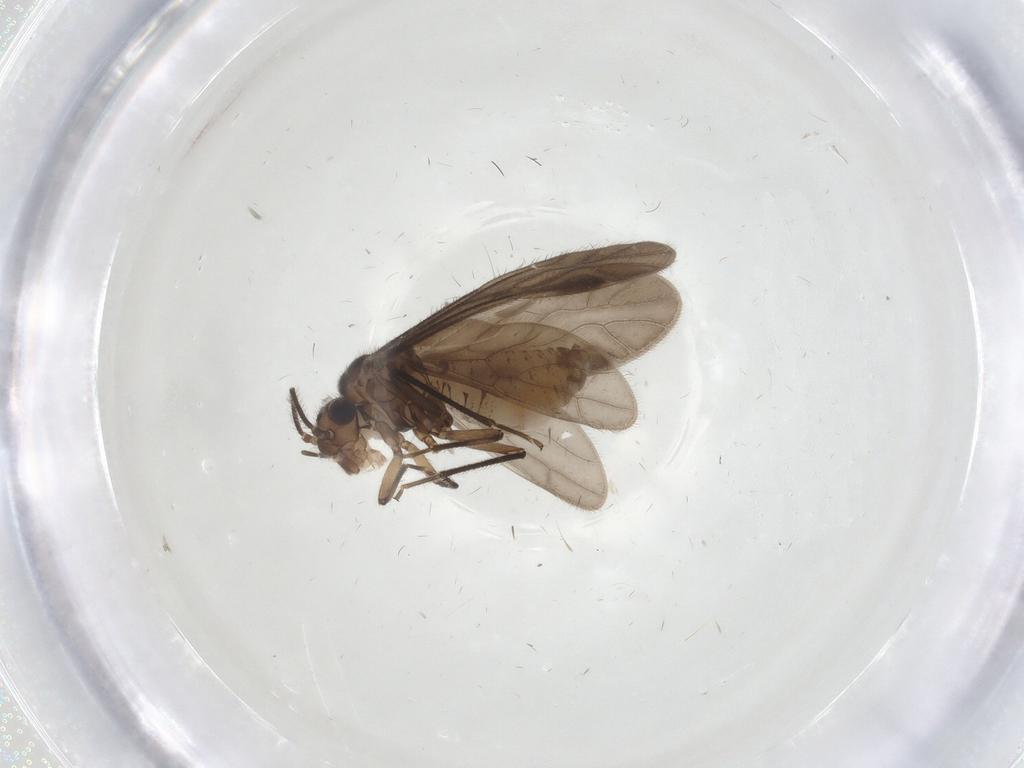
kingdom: Animalia
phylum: Arthropoda
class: Insecta
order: Psocodea
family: Caeciliusidae
